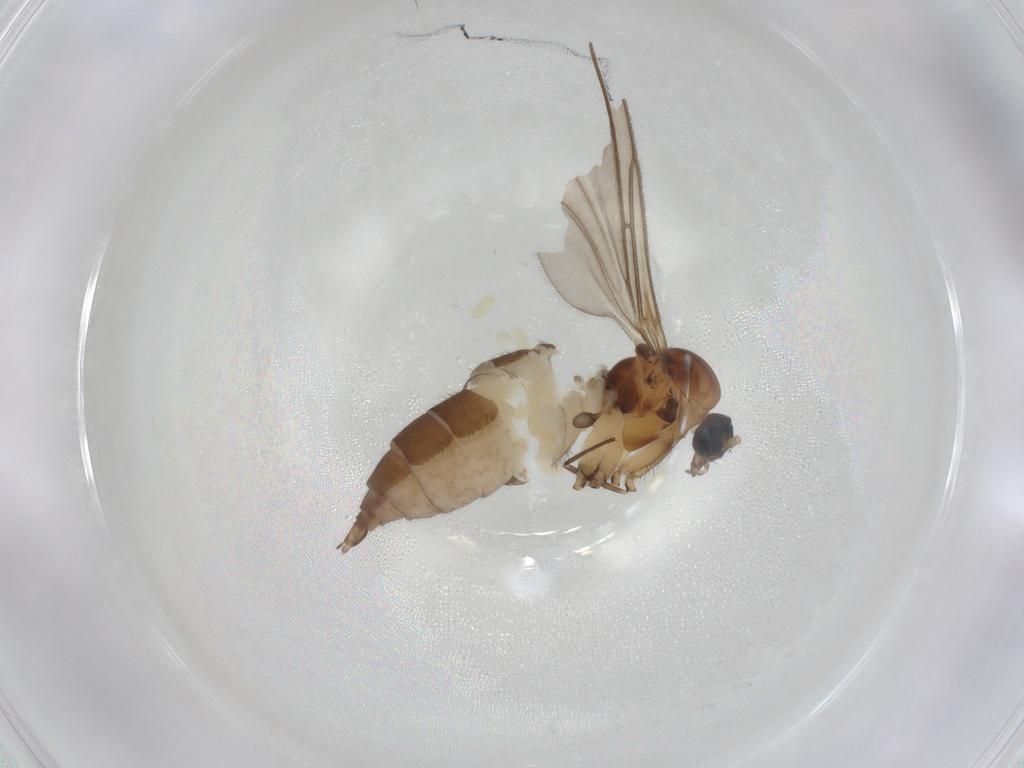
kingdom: Animalia
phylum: Arthropoda
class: Insecta
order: Diptera
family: Sciaridae
